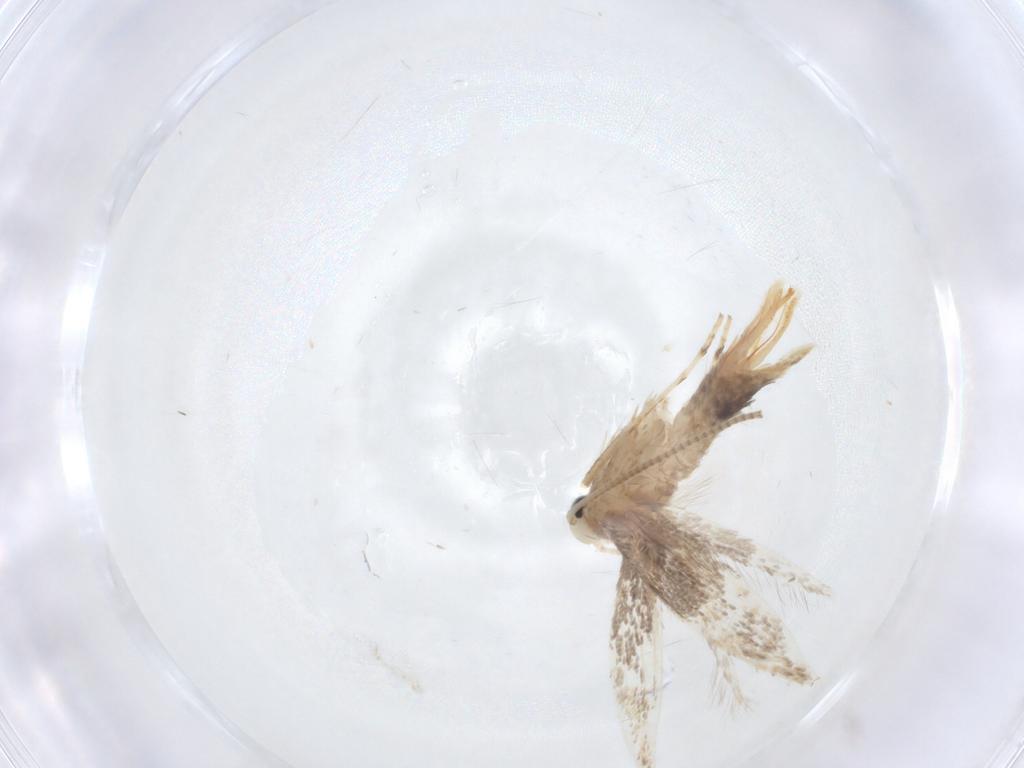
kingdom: Animalia
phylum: Arthropoda
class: Insecta
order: Lepidoptera
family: Gracillariidae
